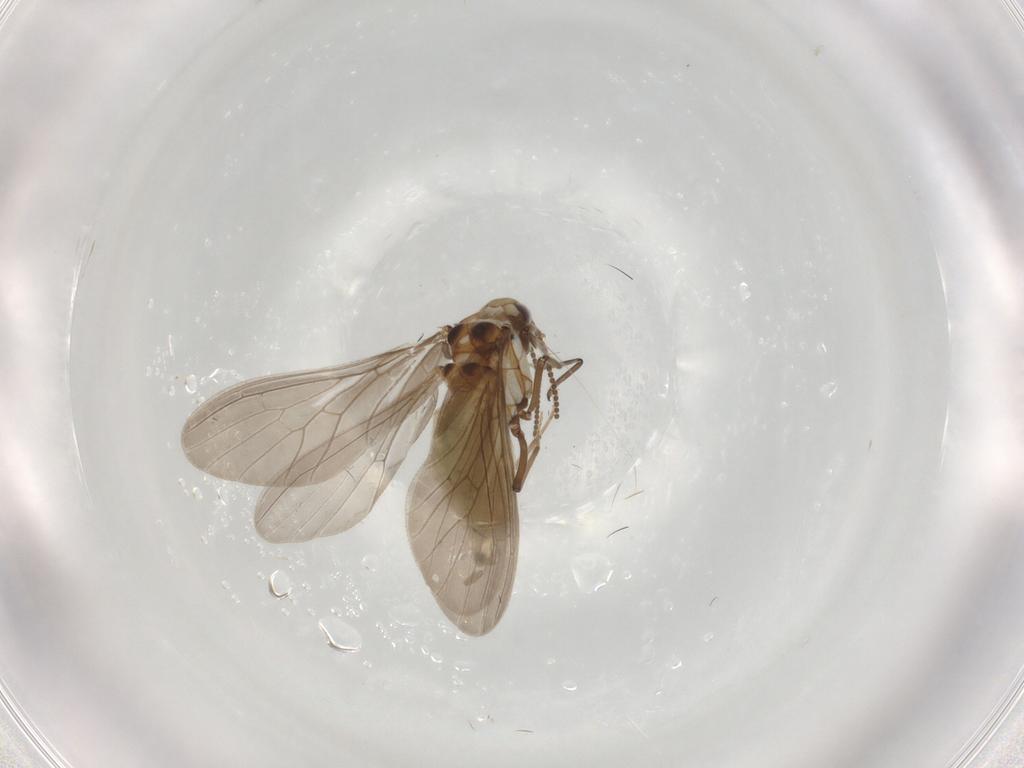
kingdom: Animalia
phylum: Arthropoda
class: Insecta
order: Neuroptera
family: Coniopterygidae
